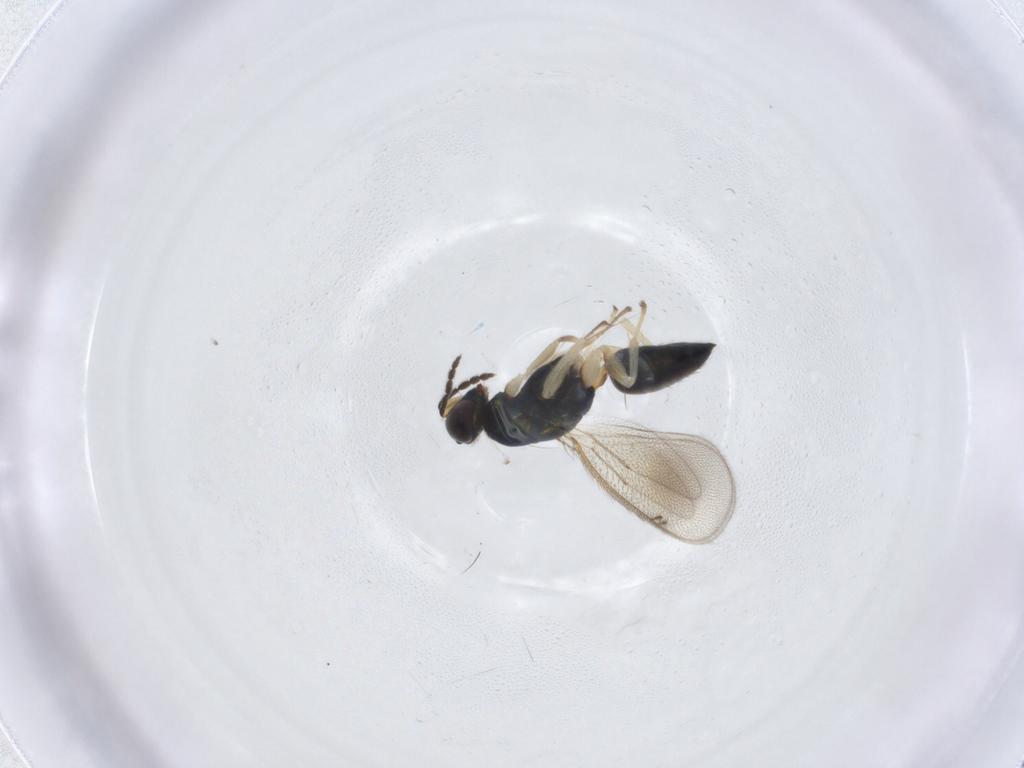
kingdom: Animalia
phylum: Arthropoda
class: Insecta
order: Hymenoptera
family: Eulophidae
